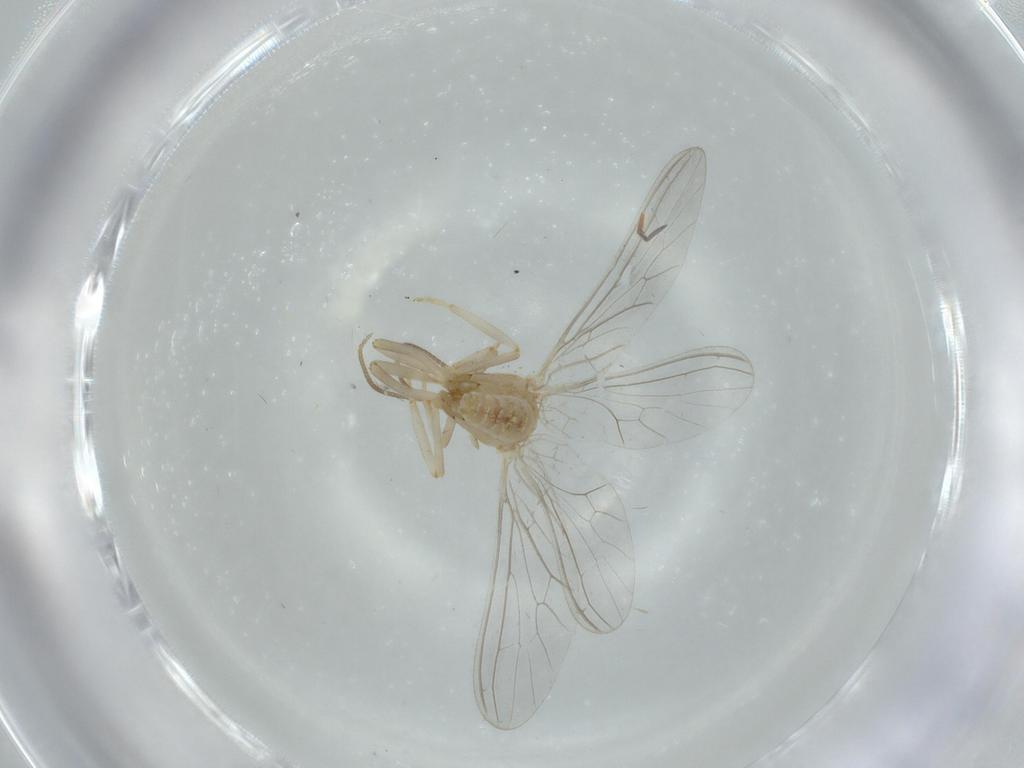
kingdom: Animalia
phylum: Arthropoda
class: Insecta
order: Neuroptera
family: Coniopterygidae
